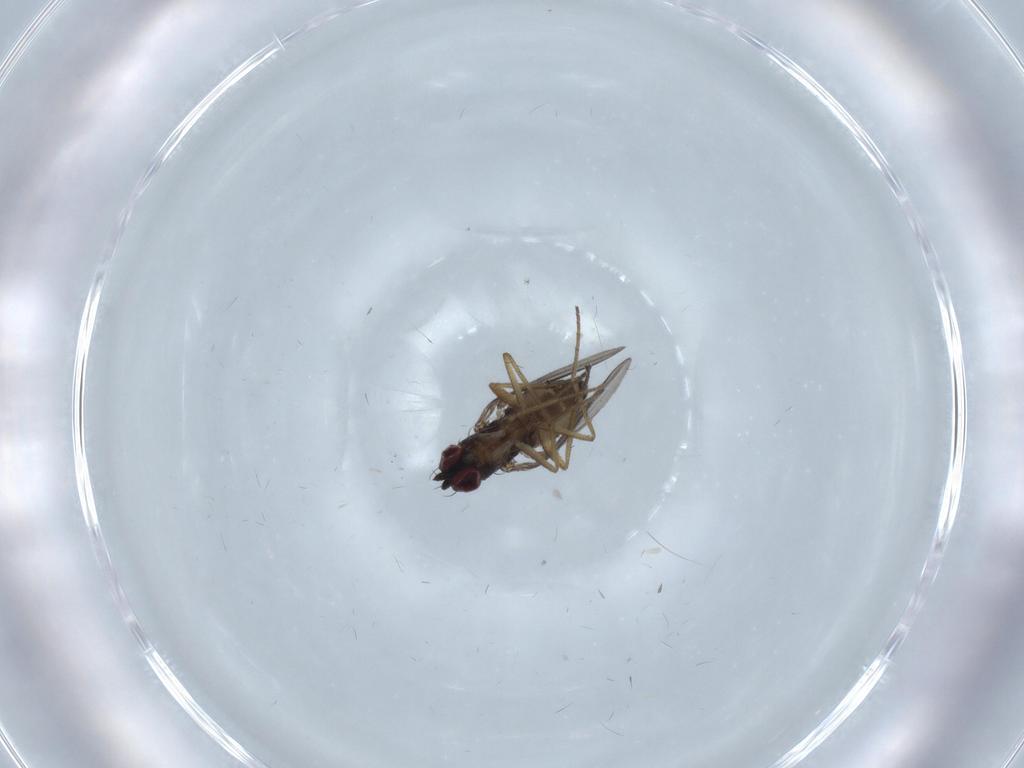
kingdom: Animalia
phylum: Arthropoda
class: Insecta
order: Diptera
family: Dolichopodidae
